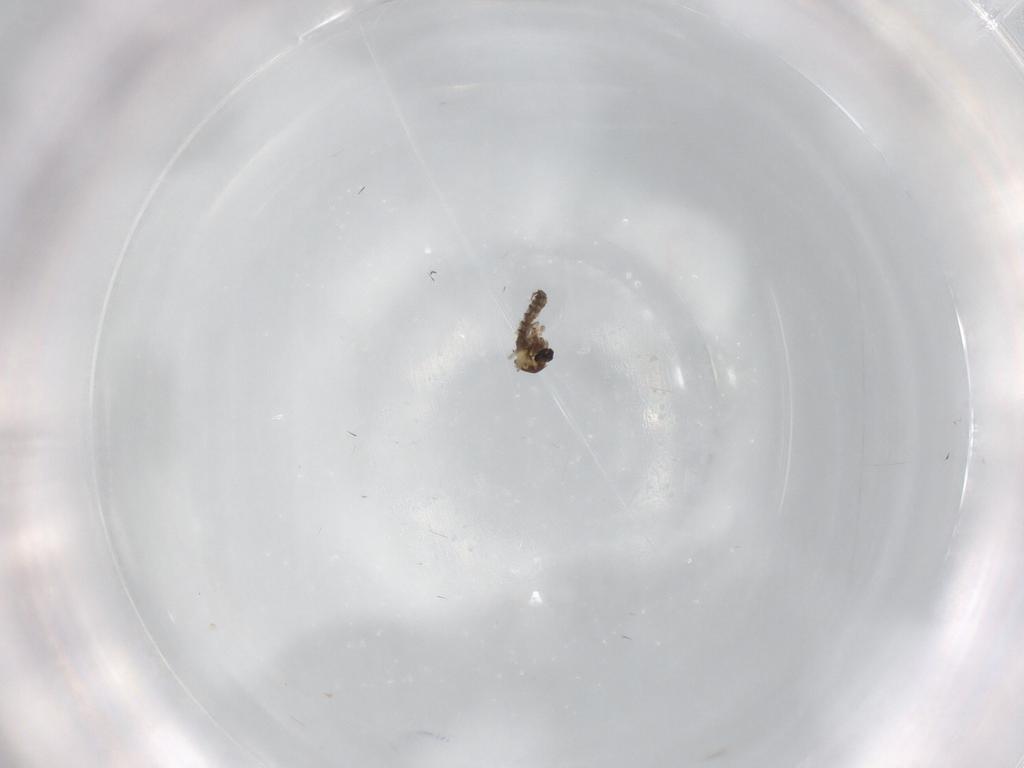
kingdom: Animalia
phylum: Arthropoda
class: Insecta
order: Diptera
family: Cecidomyiidae
